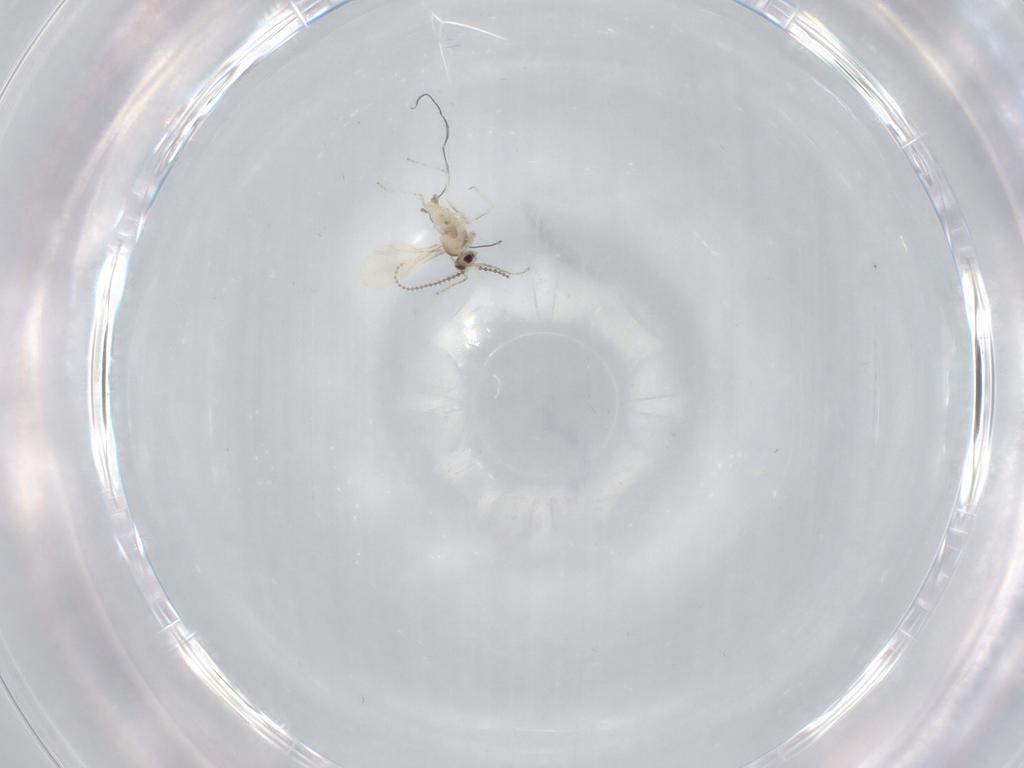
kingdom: Animalia
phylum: Arthropoda
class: Insecta
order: Diptera
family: Cecidomyiidae
